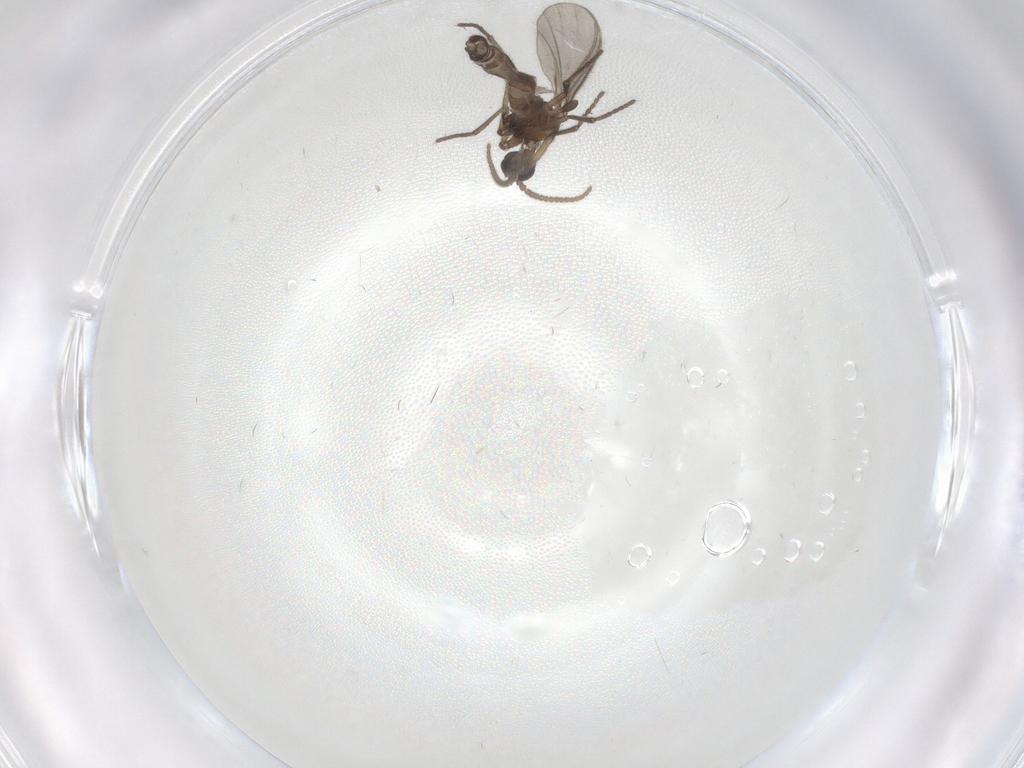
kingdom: Animalia
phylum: Arthropoda
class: Insecta
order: Diptera
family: Sciaridae
